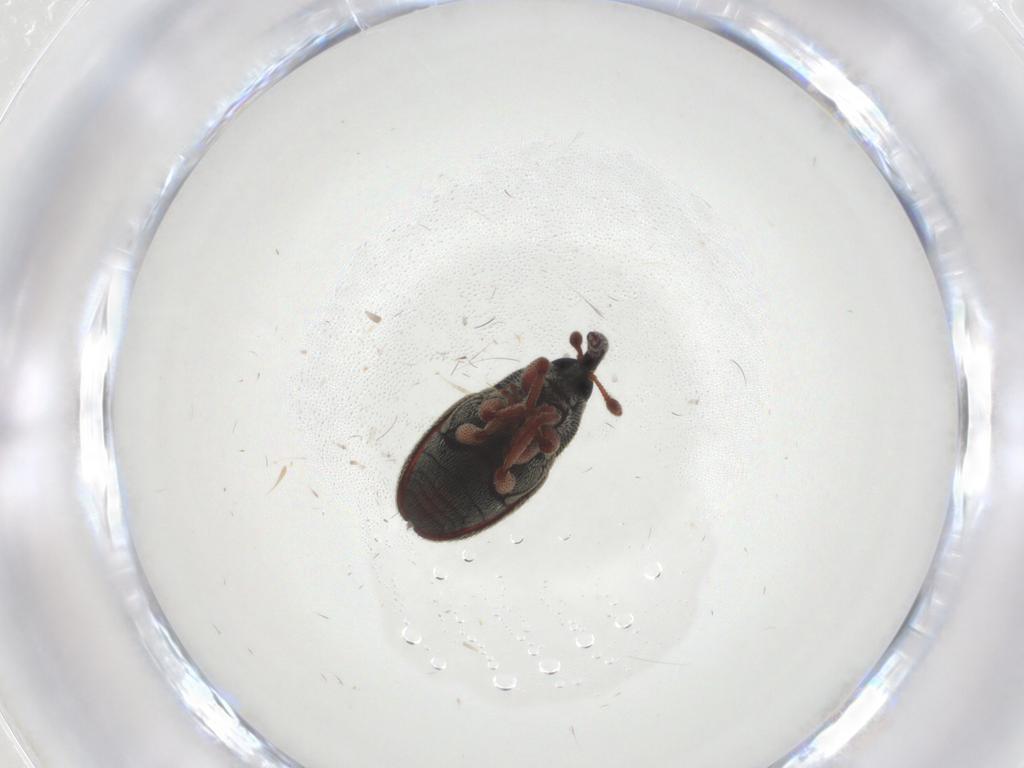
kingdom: Animalia
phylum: Arthropoda
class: Insecta
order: Coleoptera
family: Curculionidae
